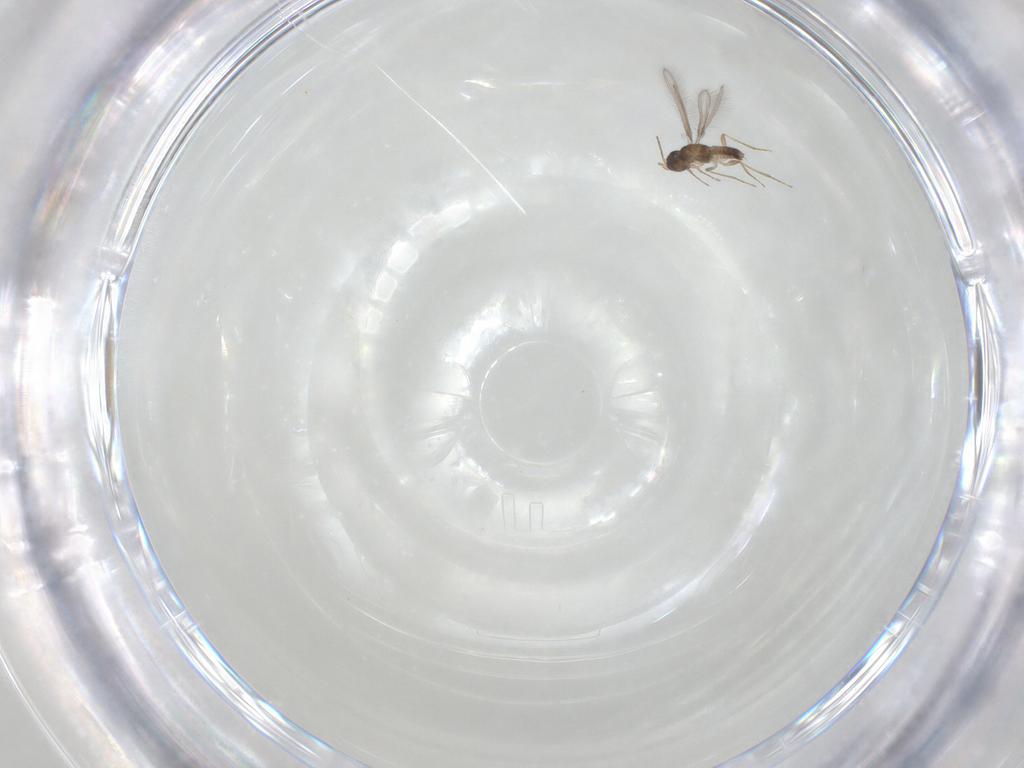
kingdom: Animalia
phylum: Arthropoda
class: Insecta
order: Hymenoptera
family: Mymaridae
